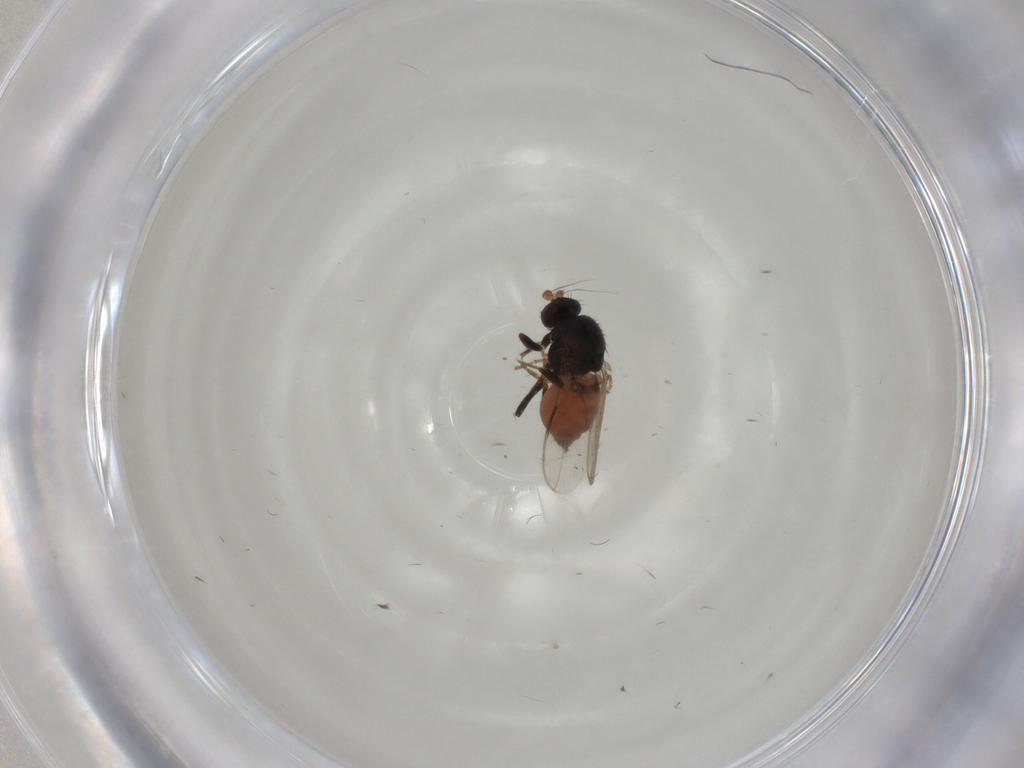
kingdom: Animalia
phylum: Arthropoda
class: Insecta
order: Diptera
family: Sphaeroceridae
